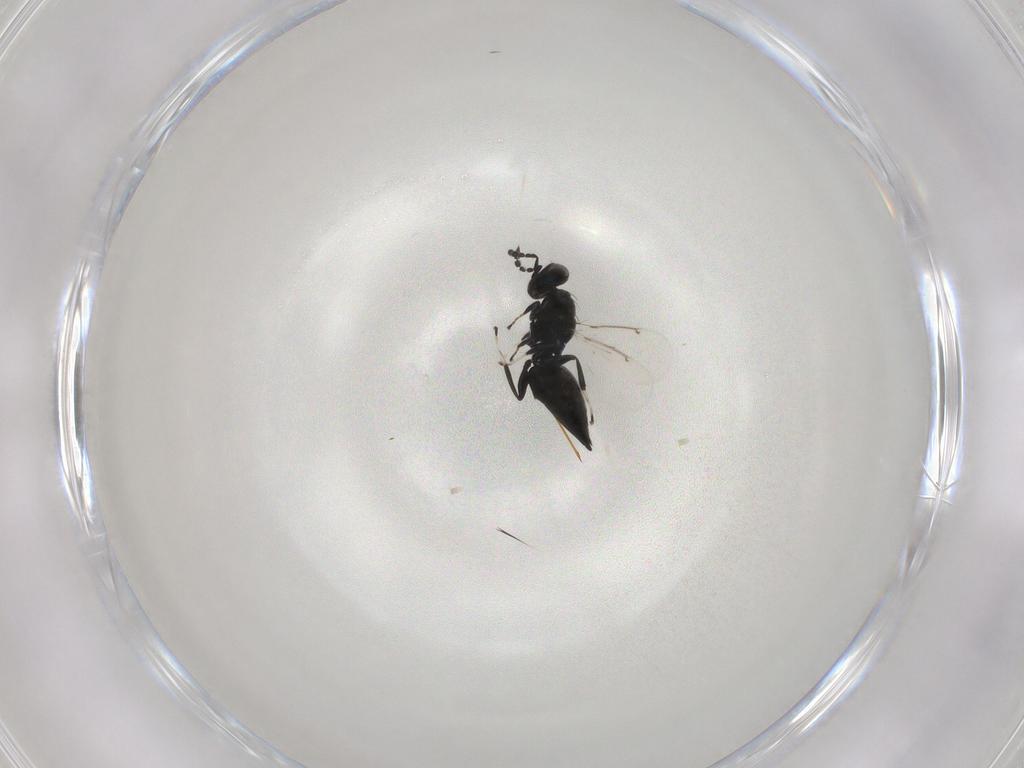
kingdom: Animalia
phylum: Arthropoda
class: Insecta
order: Hymenoptera
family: Eulophidae
